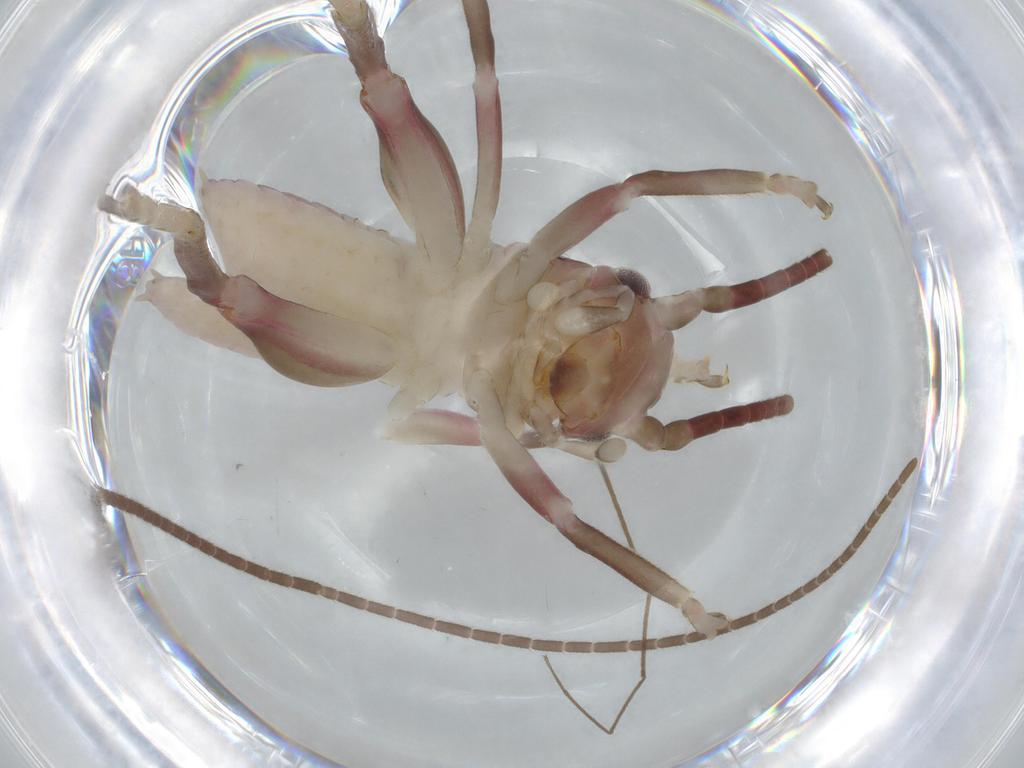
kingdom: Animalia
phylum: Arthropoda
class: Insecta
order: Orthoptera
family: Gryllacrididae
